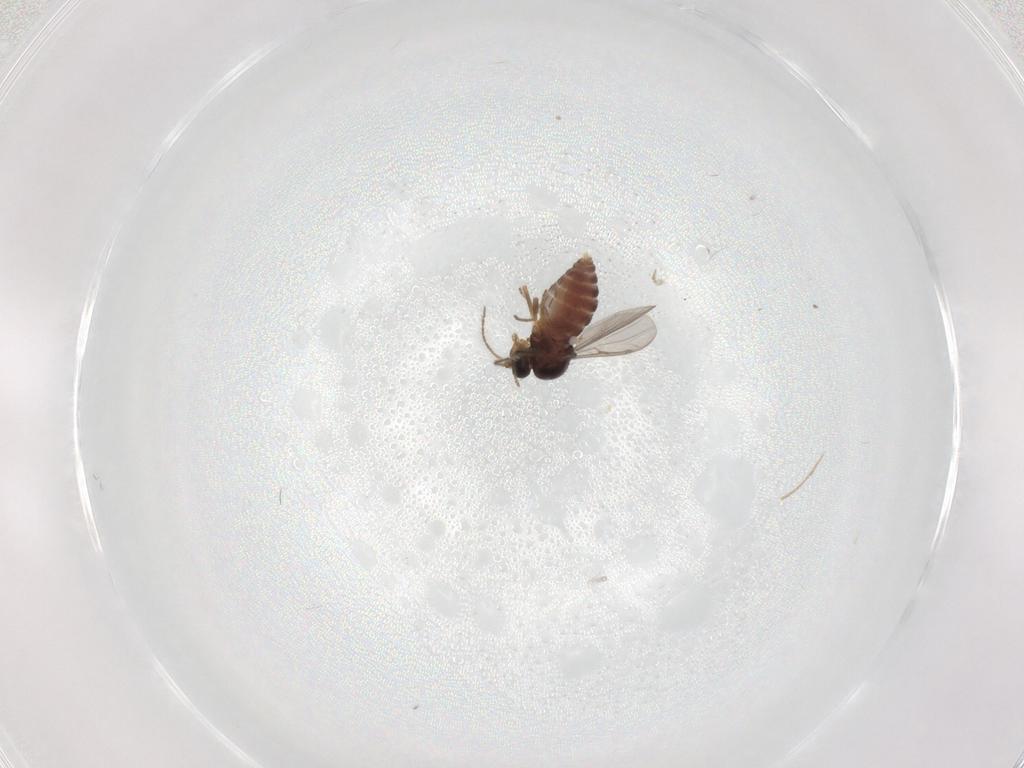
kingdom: Animalia
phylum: Arthropoda
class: Insecta
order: Diptera
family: Ceratopogonidae
